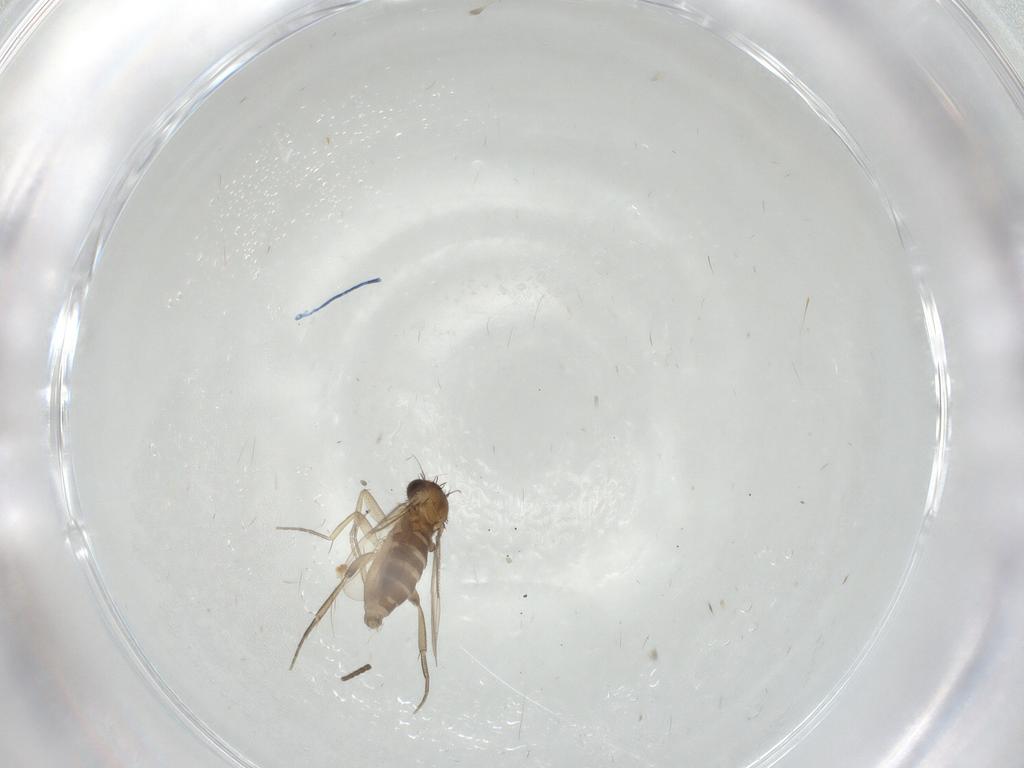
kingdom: Animalia
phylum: Arthropoda
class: Insecta
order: Diptera
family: Phoridae
